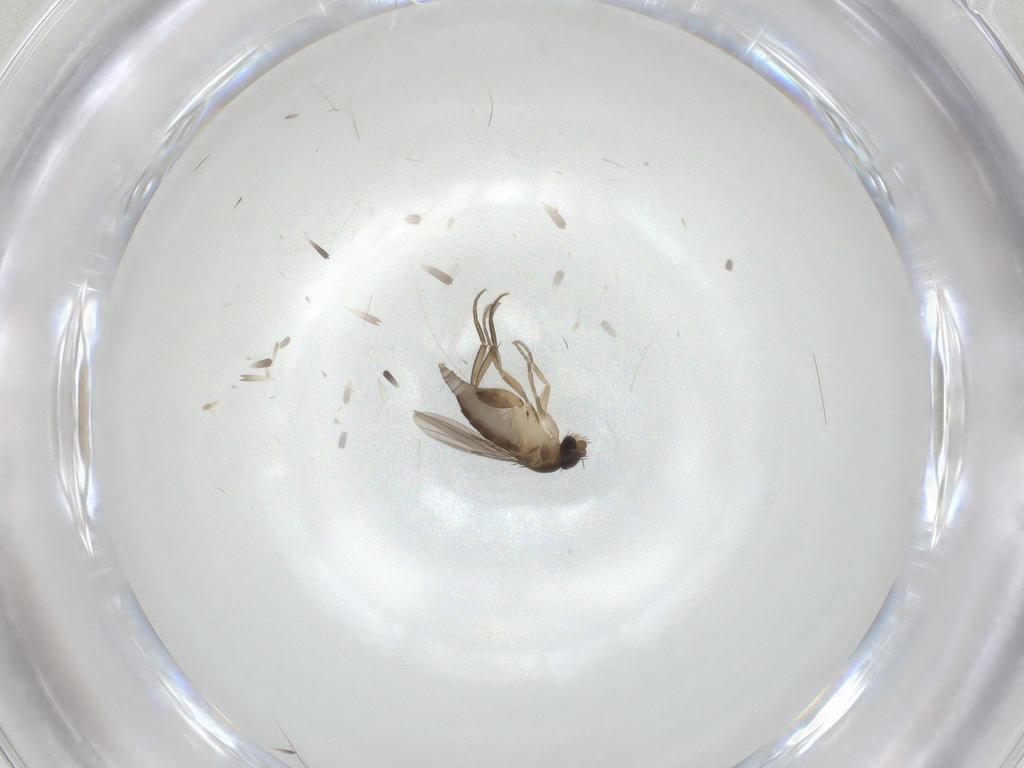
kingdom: Animalia
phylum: Arthropoda
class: Insecta
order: Diptera
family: Phoridae
